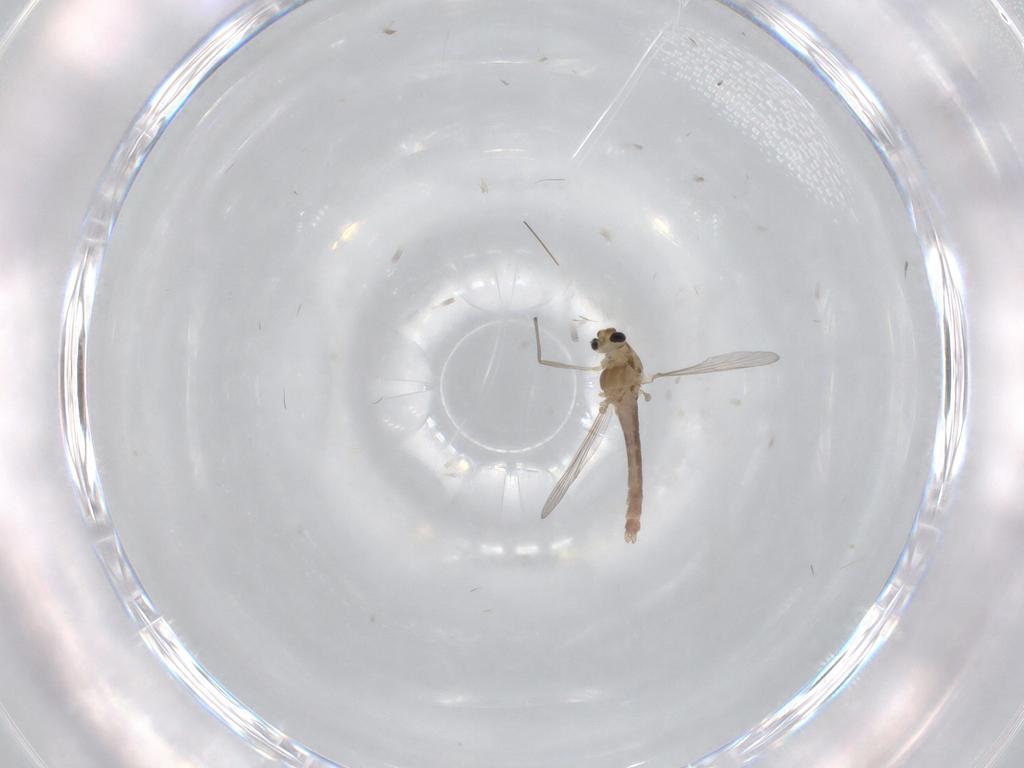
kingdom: Animalia
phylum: Arthropoda
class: Insecta
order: Diptera
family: Chironomidae
